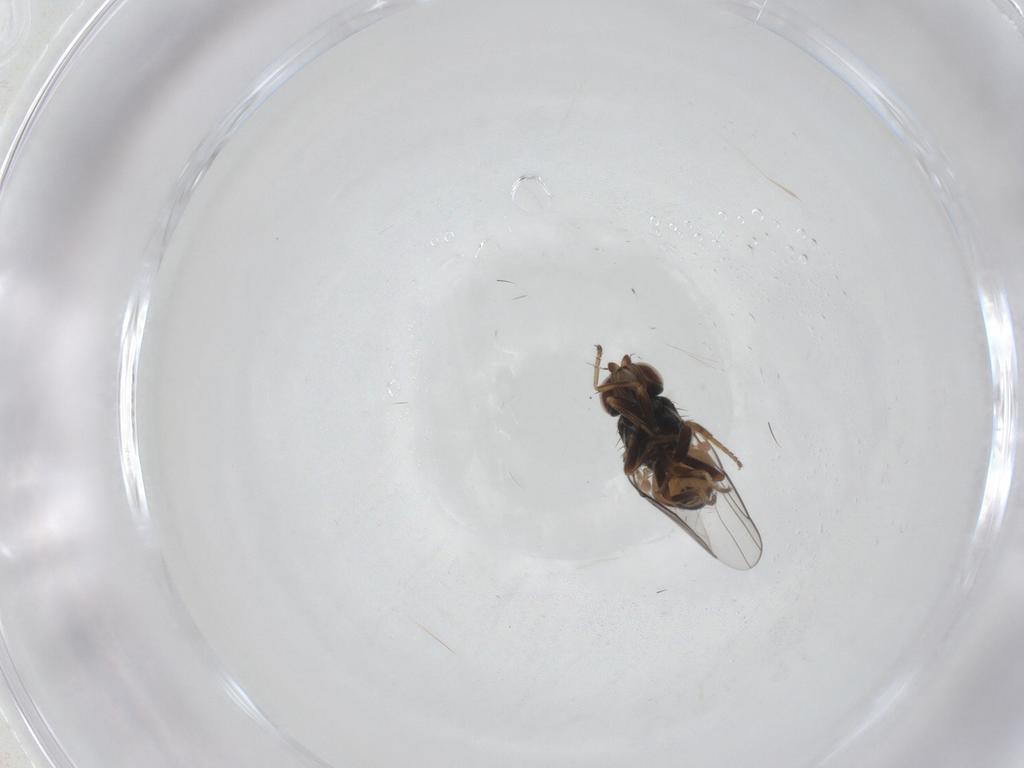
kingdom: Animalia
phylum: Arthropoda
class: Insecta
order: Diptera
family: Chloropidae
